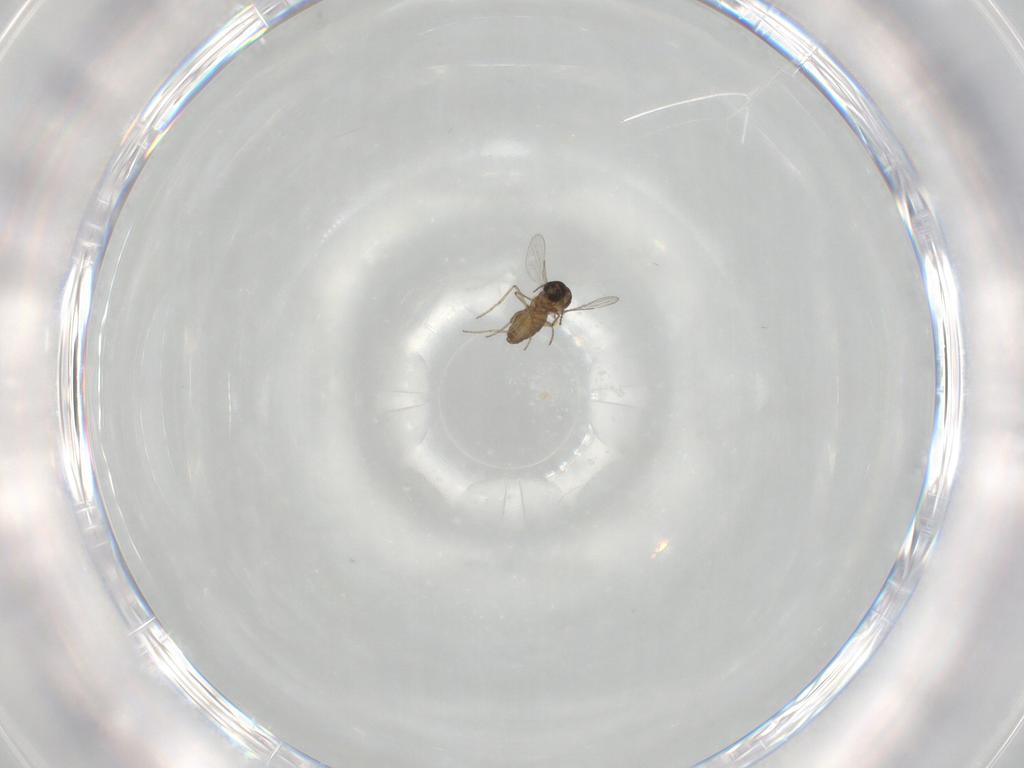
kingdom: Animalia
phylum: Arthropoda
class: Insecta
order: Diptera
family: Ceratopogonidae
